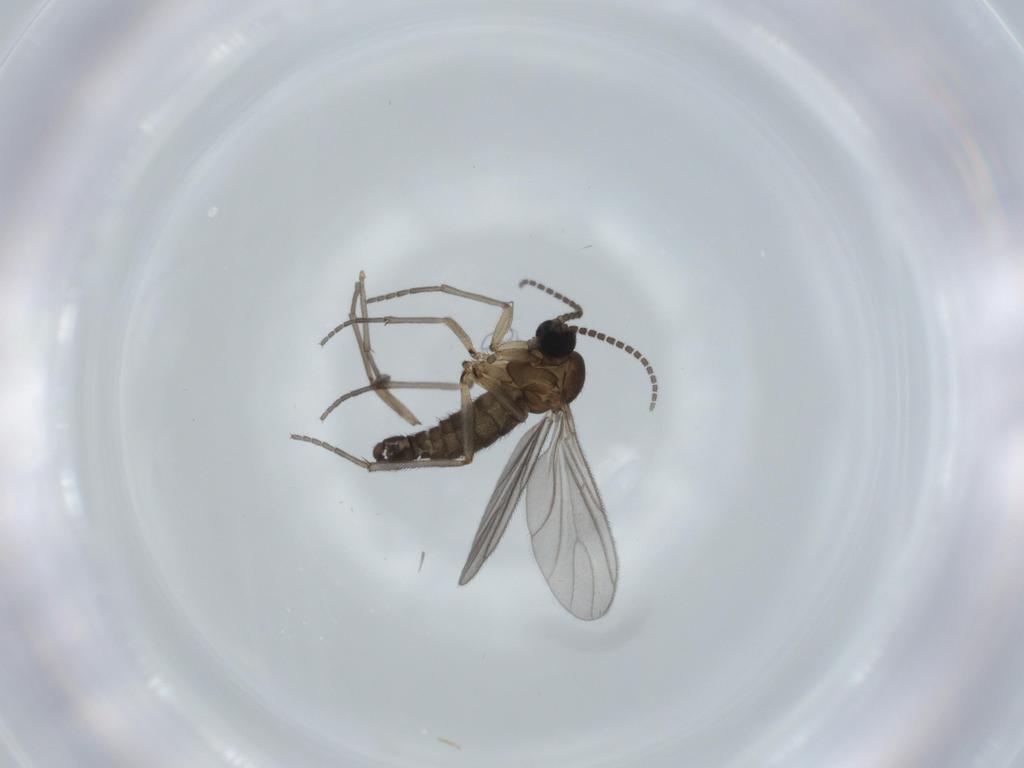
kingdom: Animalia
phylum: Arthropoda
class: Insecta
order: Diptera
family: Sciaridae
